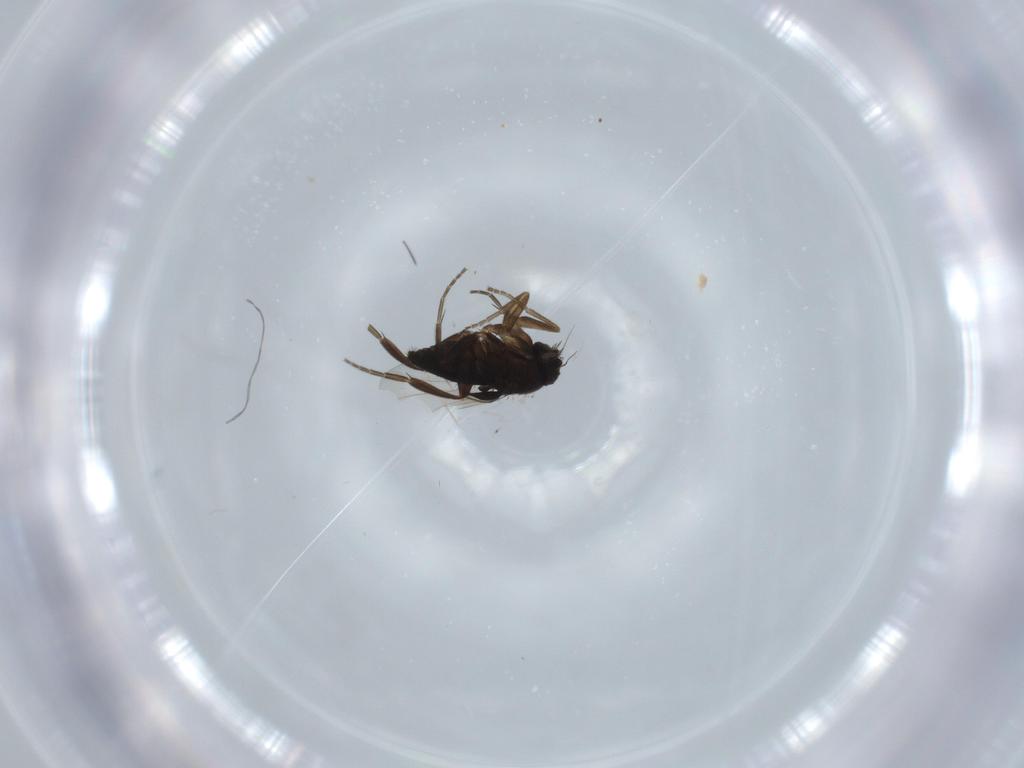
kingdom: Animalia
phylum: Arthropoda
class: Insecta
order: Diptera
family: Phoridae
